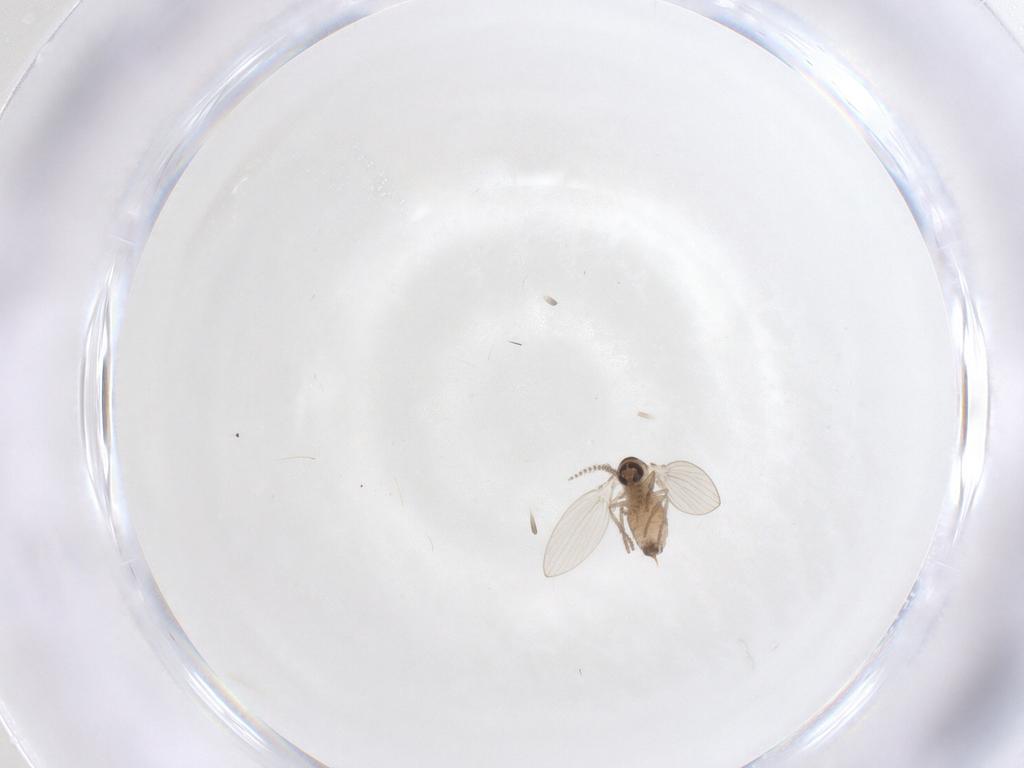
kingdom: Animalia
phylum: Arthropoda
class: Insecta
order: Diptera
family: Psychodidae
